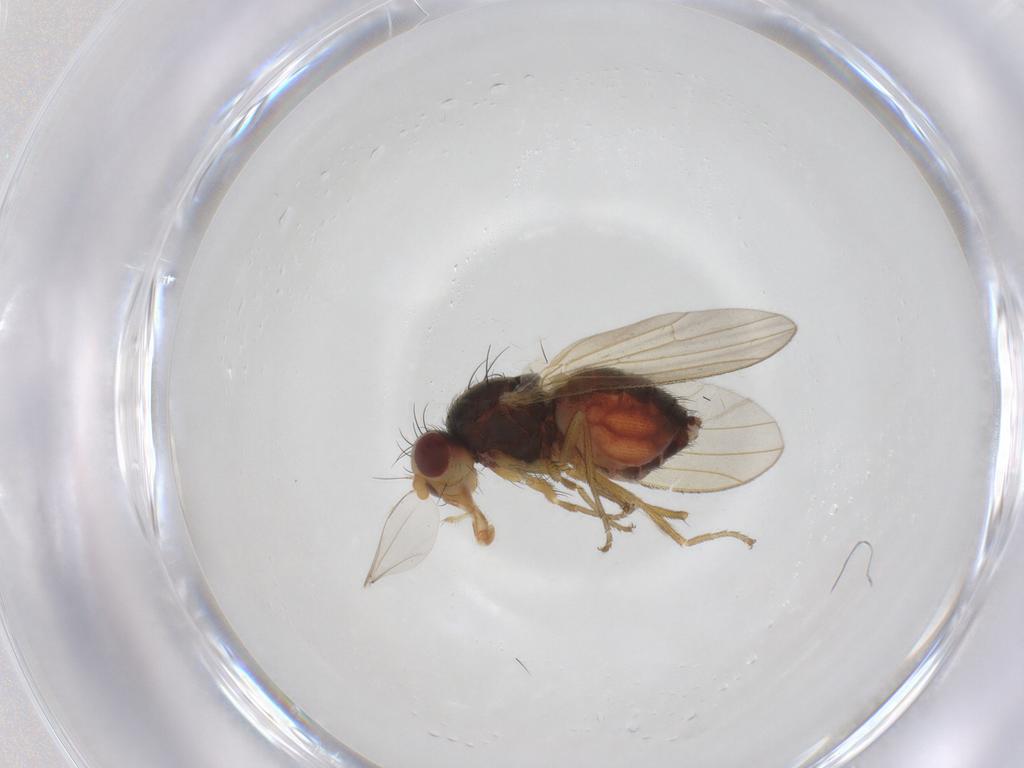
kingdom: Animalia
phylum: Arthropoda
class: Insecta
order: Diptera
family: Heleomyzidae
